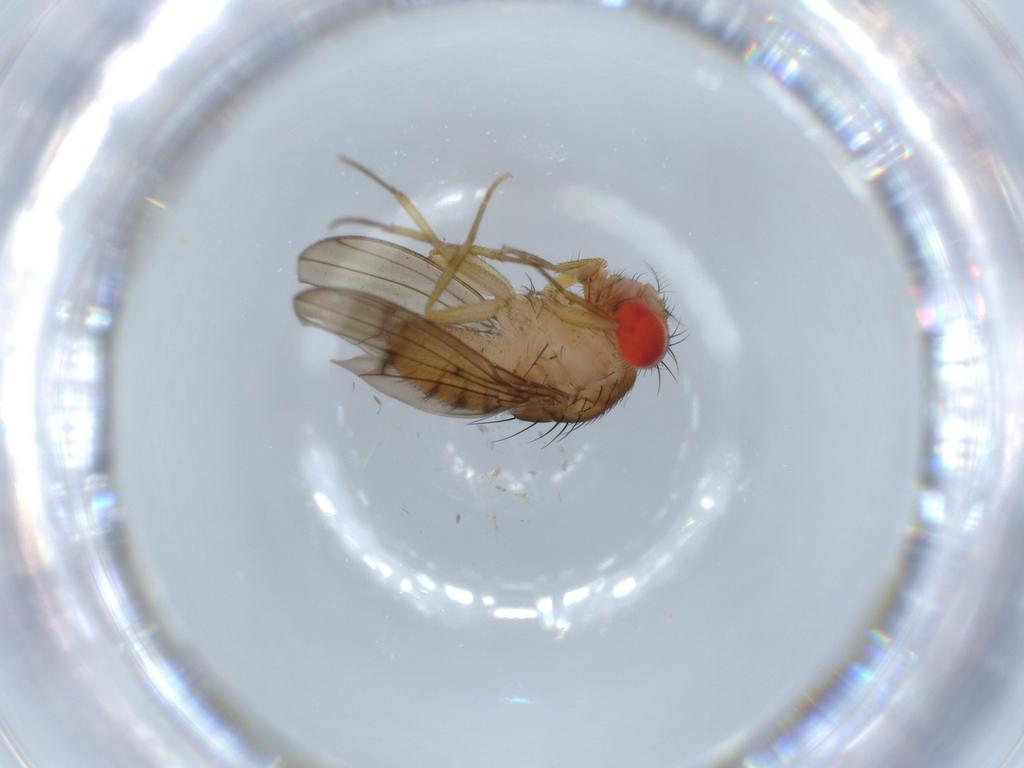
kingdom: Animalia
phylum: Arthropoda
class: Insecta
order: Diptera
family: Drosophilidae
